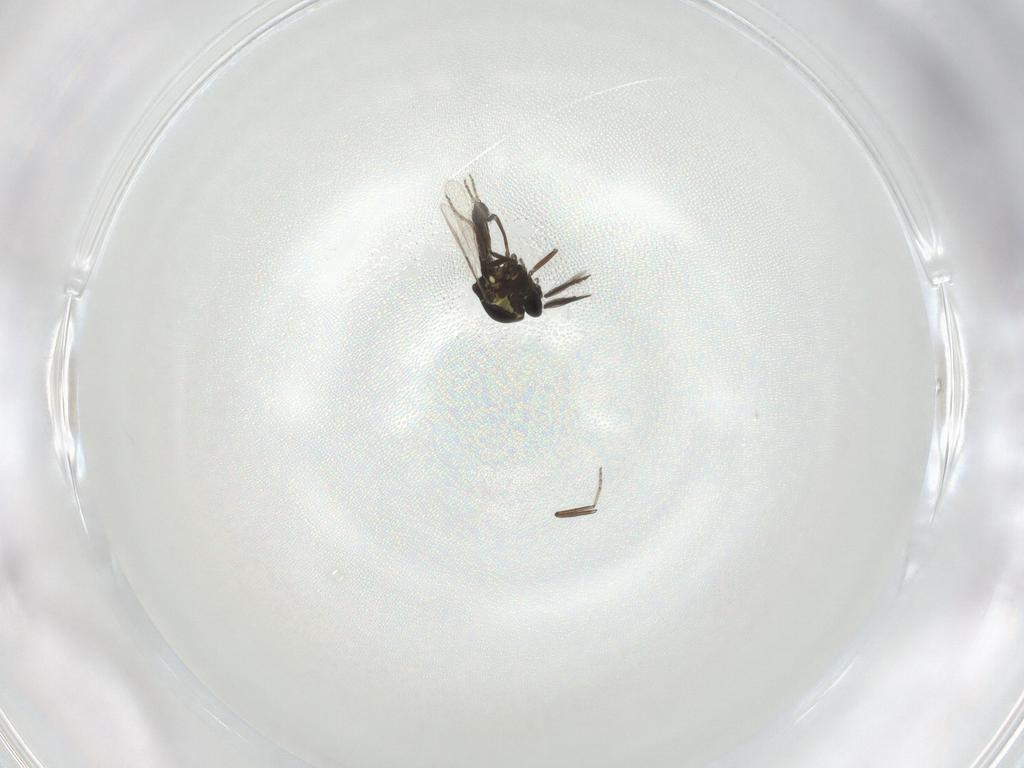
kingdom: Animalia
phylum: Arthropoda
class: Insecta
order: Diptera
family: Ceratopogonidae
